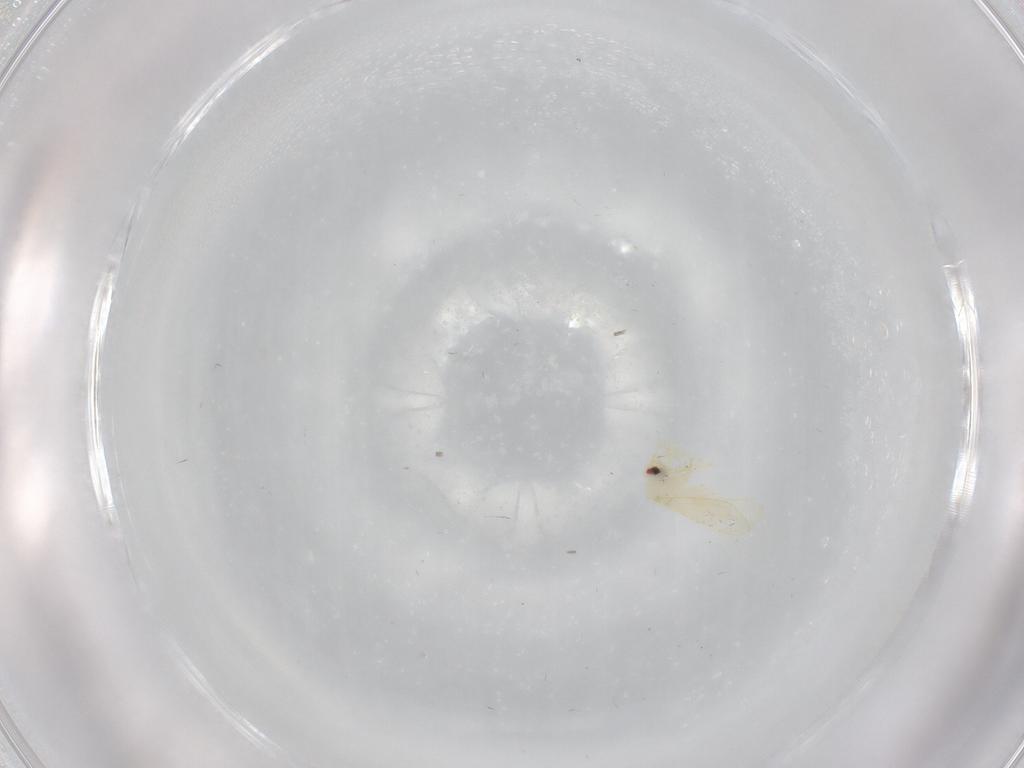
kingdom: Animalia
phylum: Arthropoda
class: Insecta
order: Hemiptera
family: Aleyrodidae
